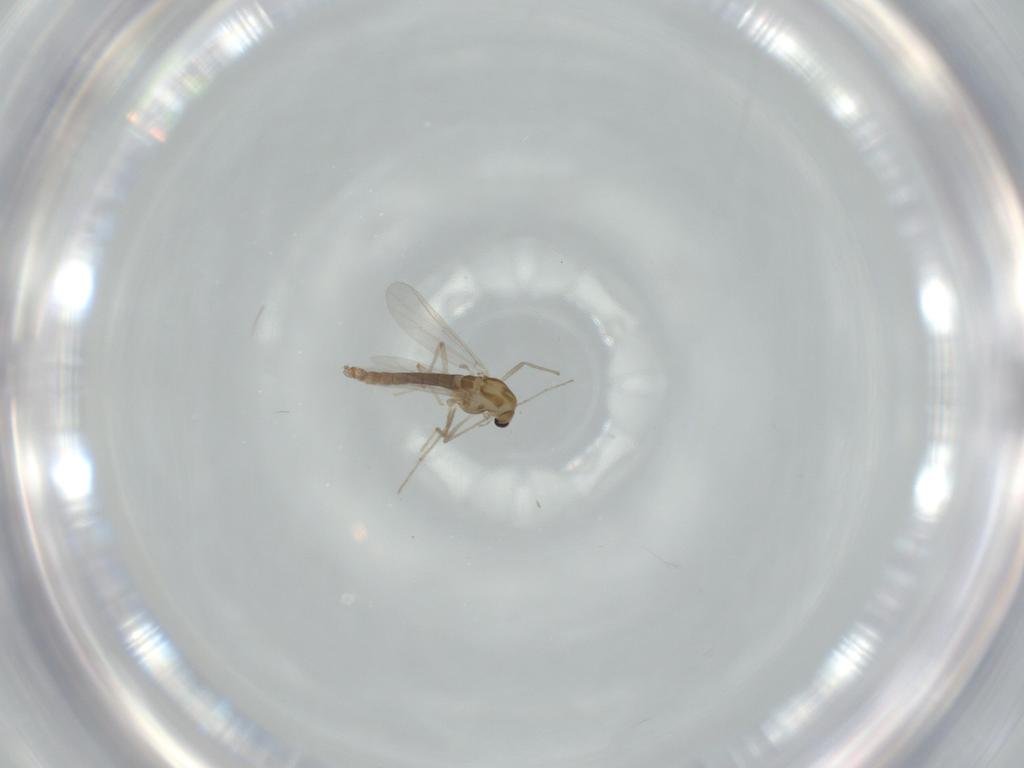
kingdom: Animalia
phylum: Arthropoda
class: Insecta
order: Diptera
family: Chironomidae
